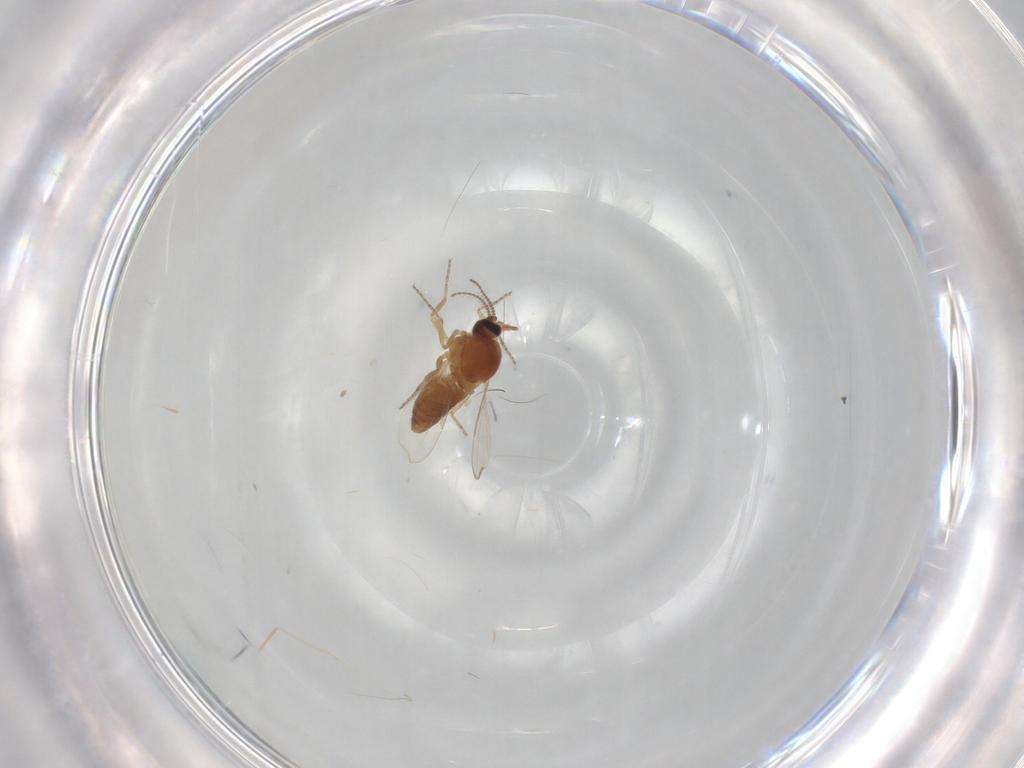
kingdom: Animalia
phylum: Arthropoda
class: Insecta
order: Diptera
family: Ceratopogonidae
